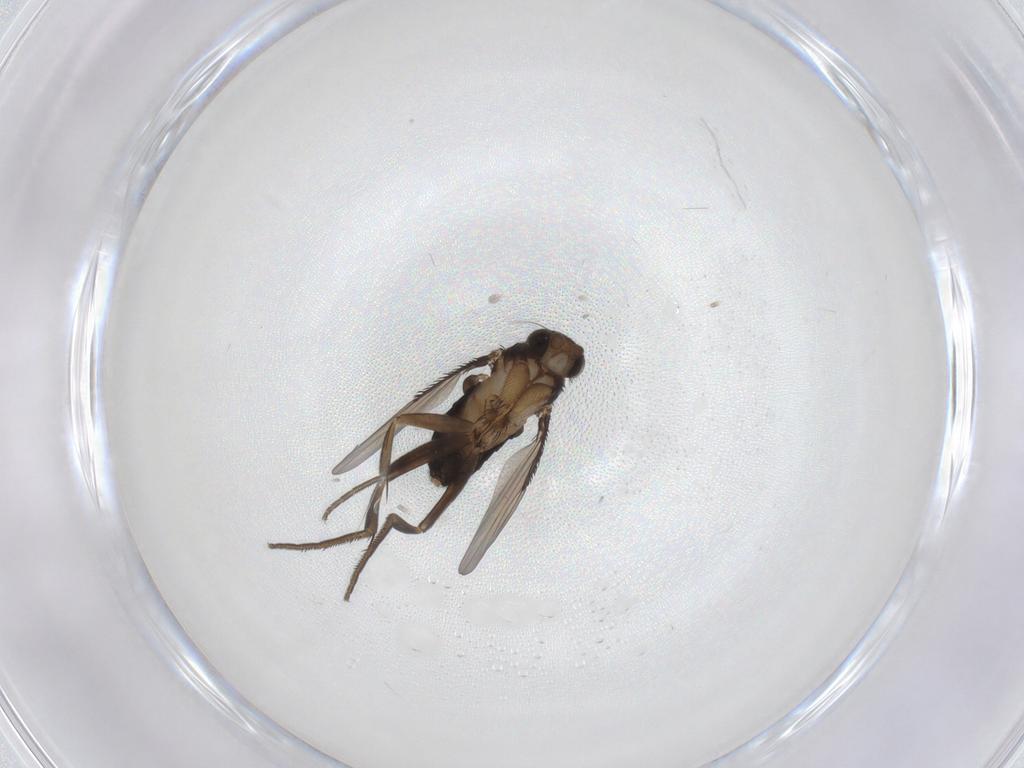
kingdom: Animalia
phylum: Arthropoda
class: Insecta
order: Diptera
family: Phoridae
